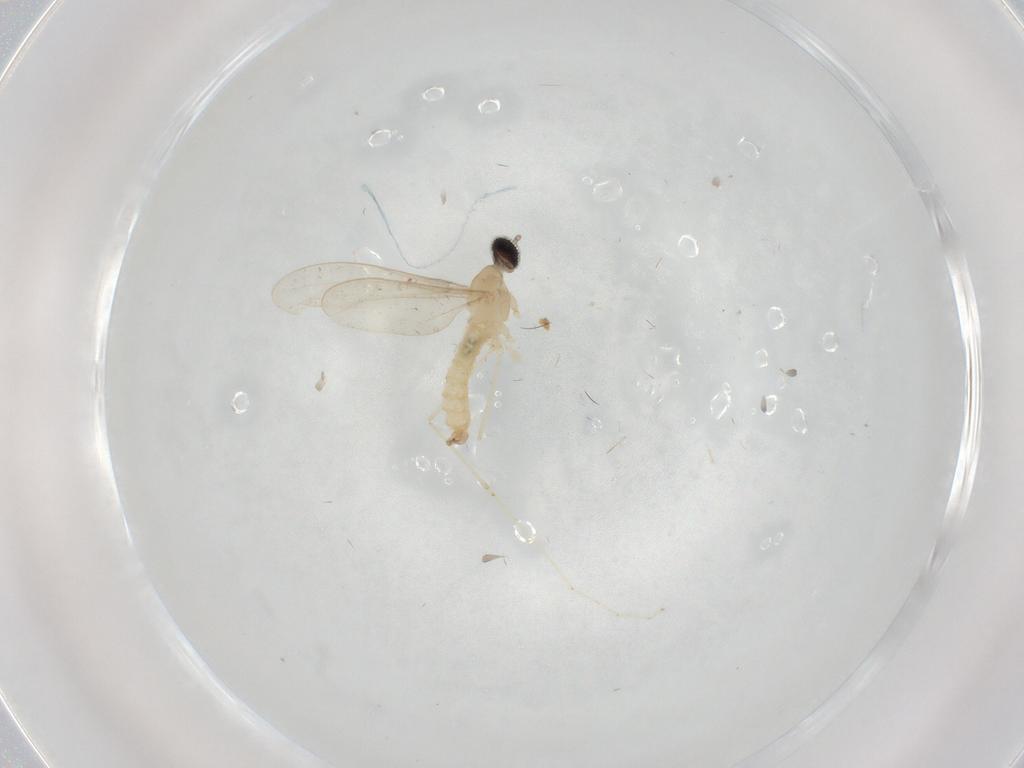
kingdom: Animalia
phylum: Arthropoda
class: Insecta
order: Diptera
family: Cecidomyiidae
